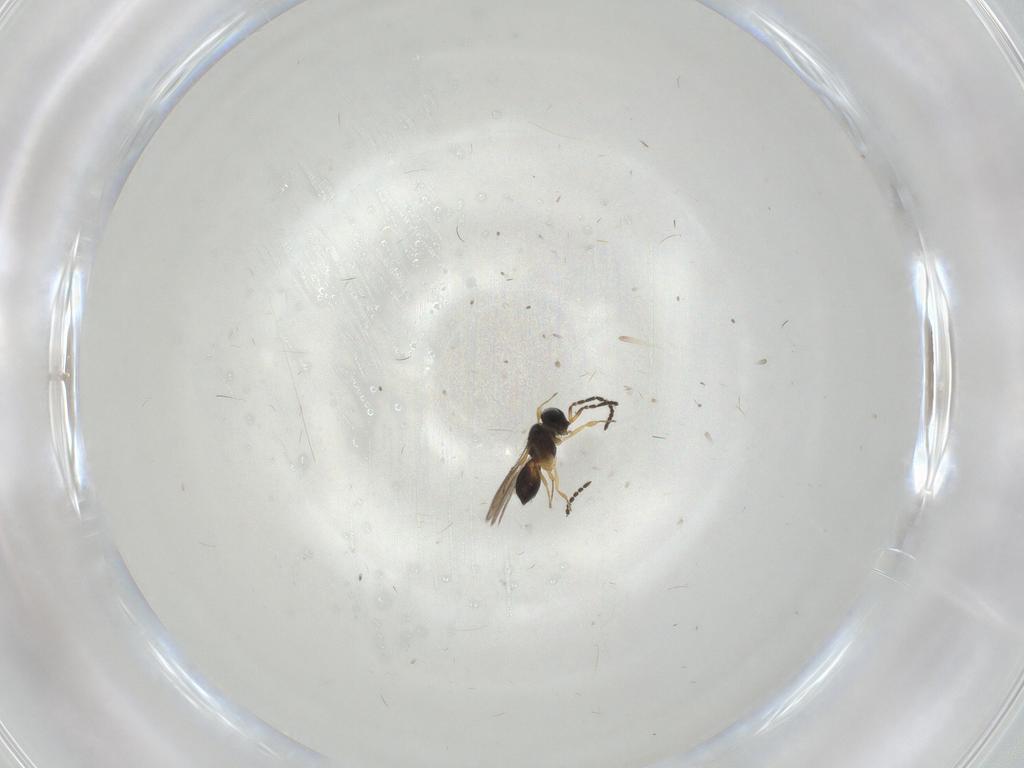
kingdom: Animalia
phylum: Arthropoda
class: Insecta
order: Hymenoptera
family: Scelionidae
